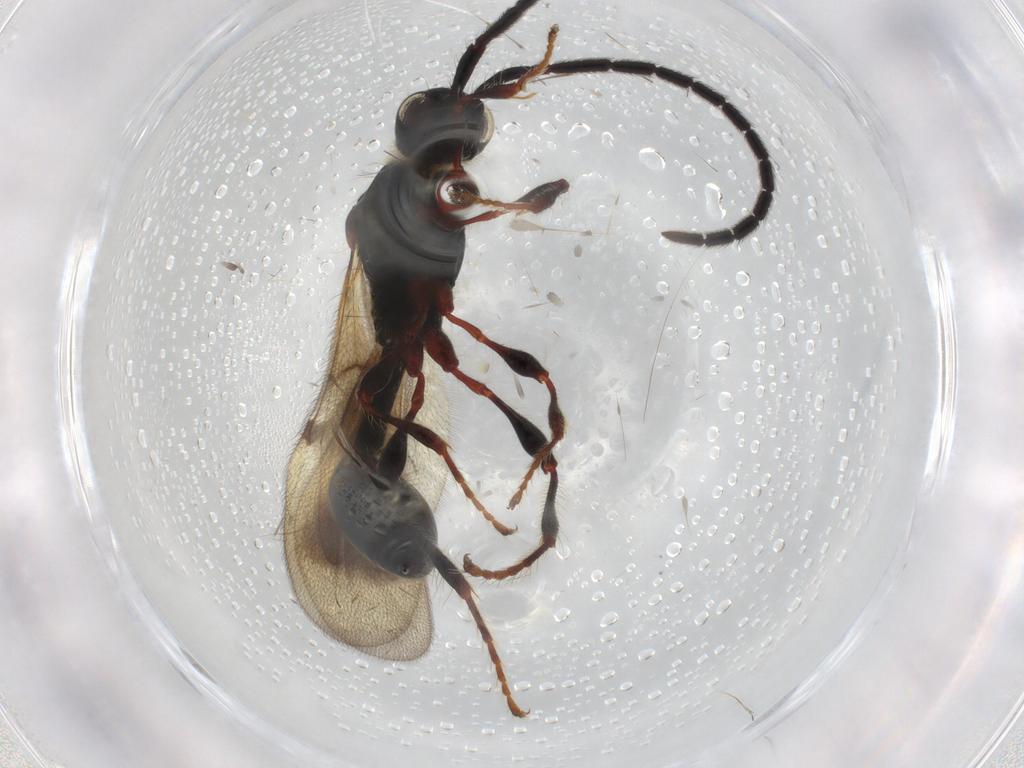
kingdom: Animalia
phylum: Arthropoda
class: Insecta
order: Hymenoptera
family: Diapriidae
